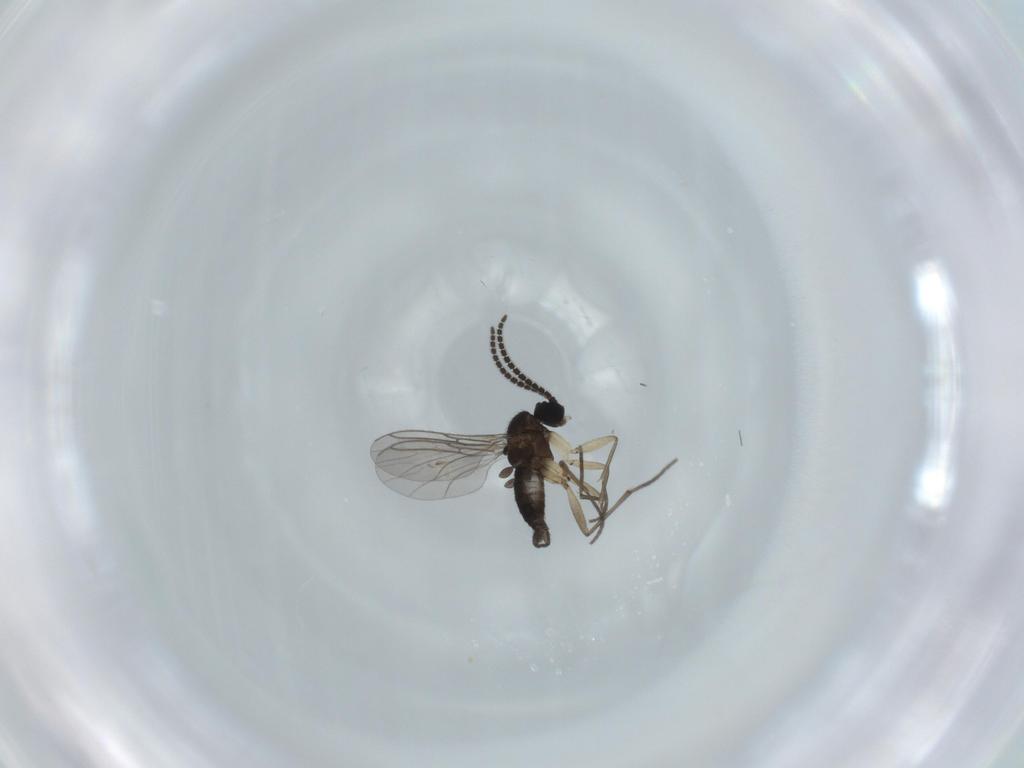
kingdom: Animalia
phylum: Arthropoda
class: Insecta
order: Diptera
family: Sciaridae
